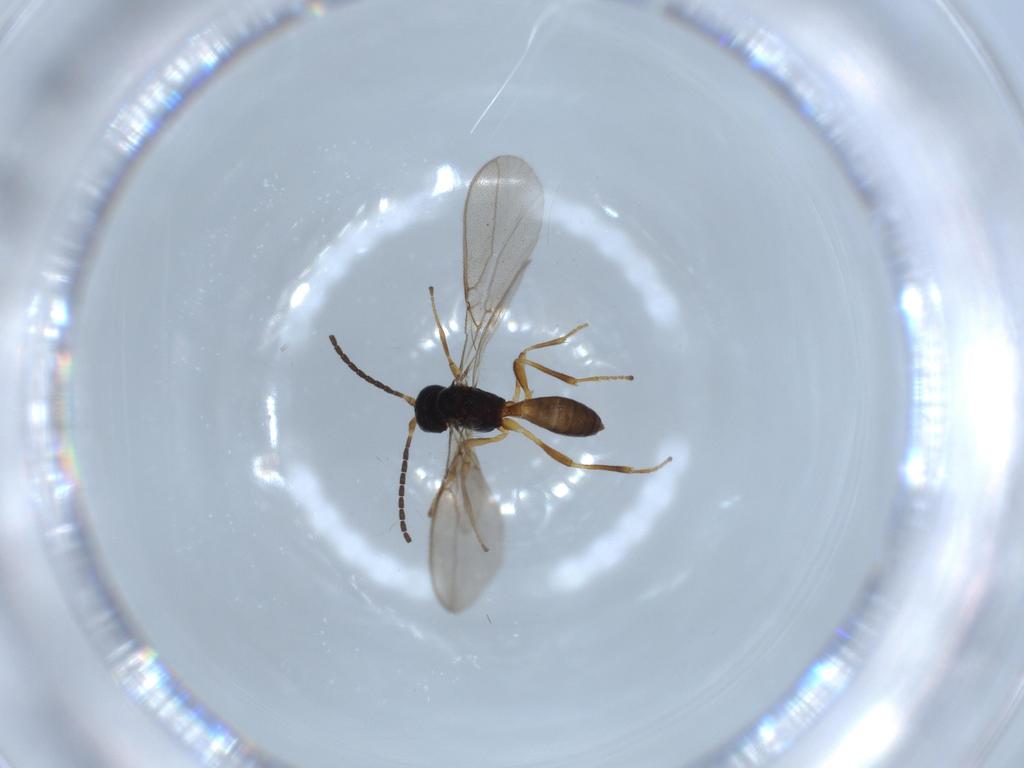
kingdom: Animalia
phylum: Arthropoda
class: Insecta
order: Hymenoptera
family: Braconidae
